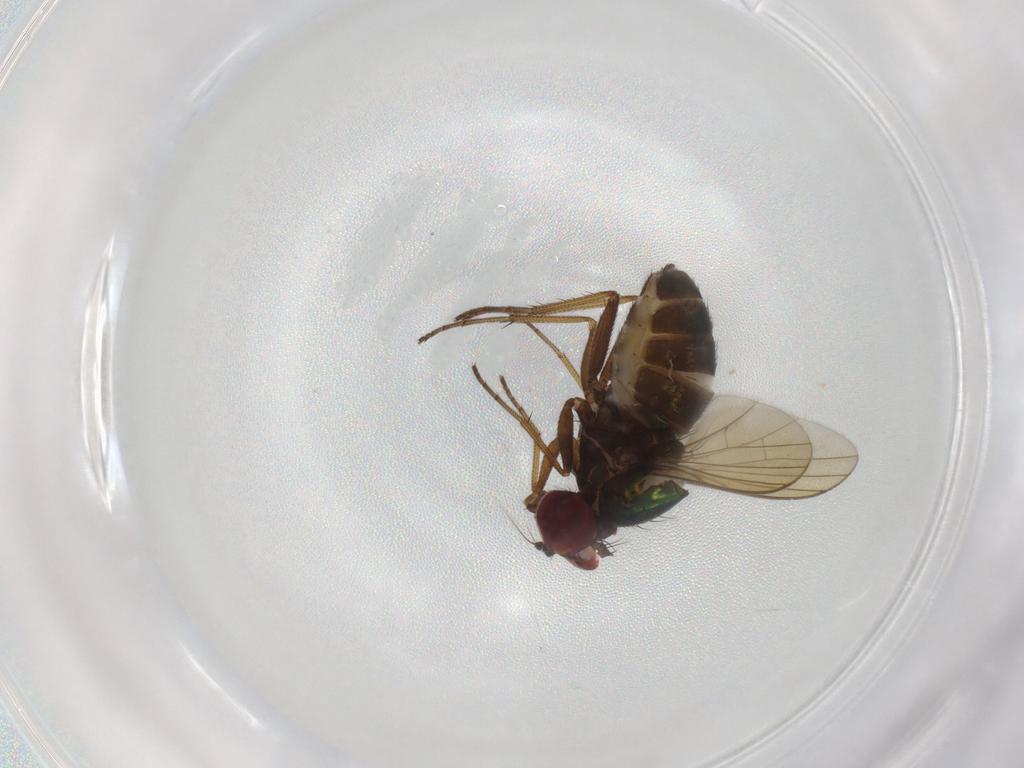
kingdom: Animalia
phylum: Arthropoda
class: Insecta
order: Diptera
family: Dolichopodidae
